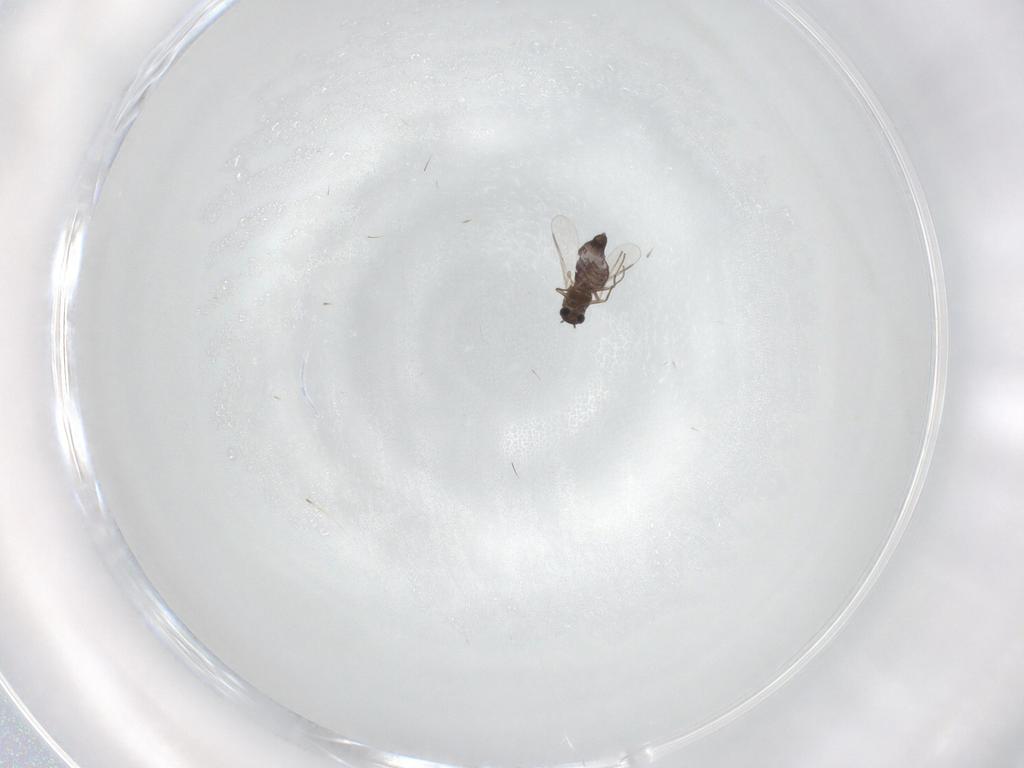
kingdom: Animalia
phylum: Arthropoda
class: Insecta
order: Diptera
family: Chironomidae
